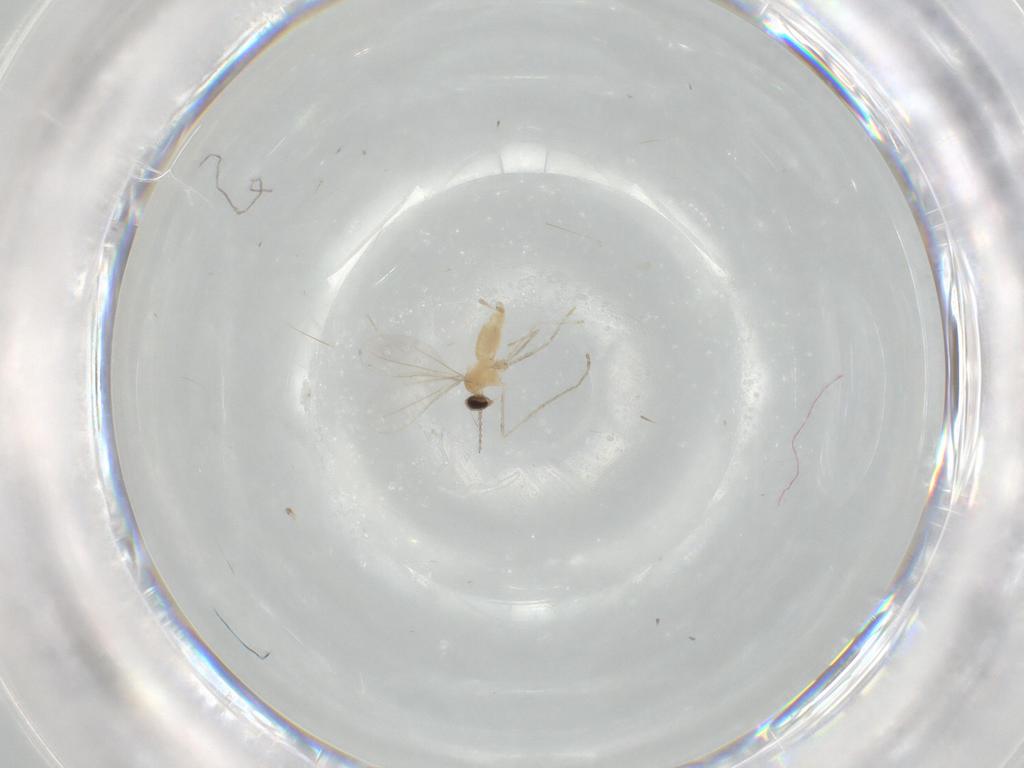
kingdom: Animalia
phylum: Arthropoda
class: Insecta
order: Diptera
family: Cecidomyiidae
